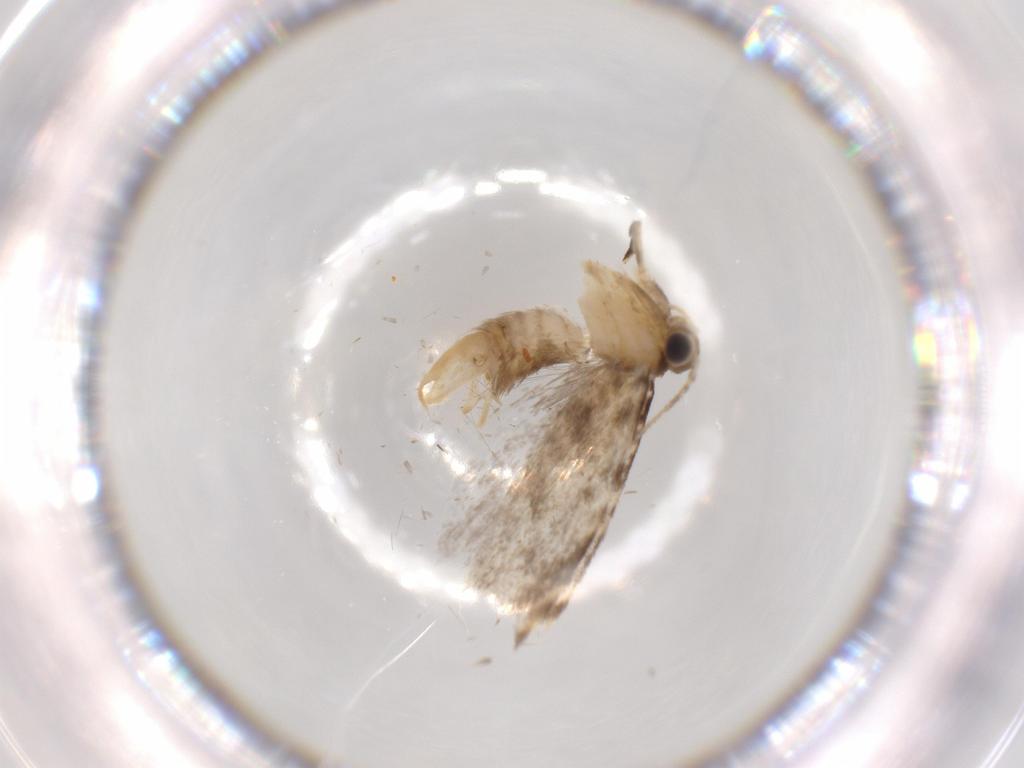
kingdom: Animalia
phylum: Arthropoda
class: Insecta
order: Lepidoptera
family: Tineidae
